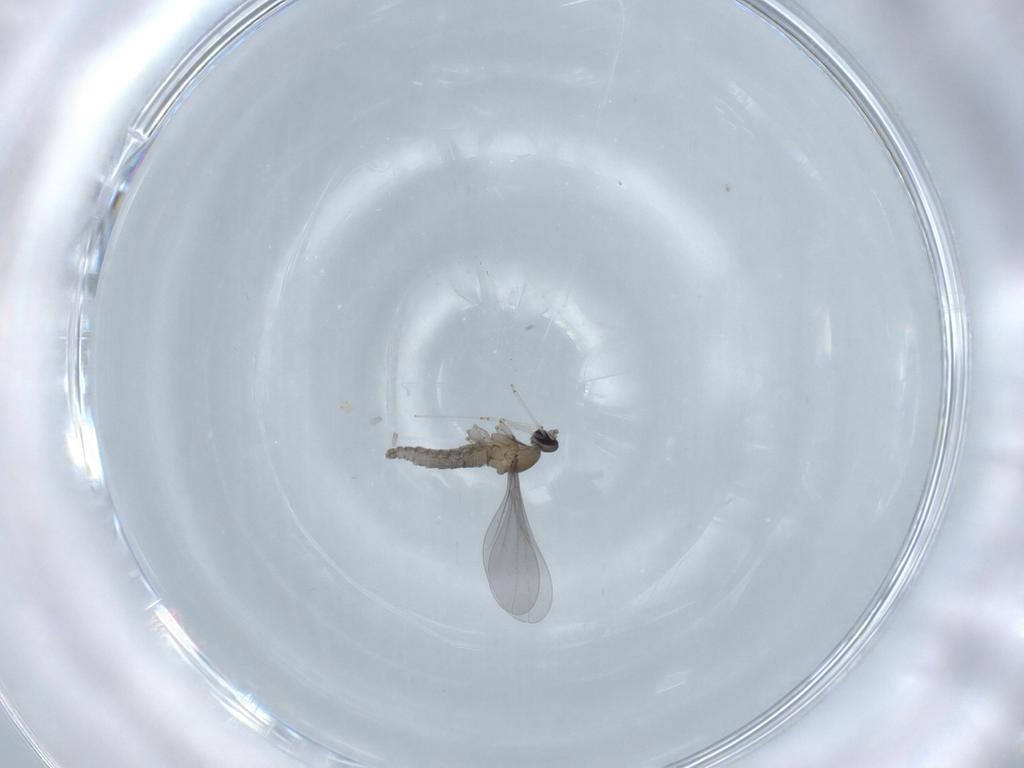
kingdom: Animalia
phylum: Arthropoda
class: Insecta
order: Diptera
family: Cecidomyiidae
